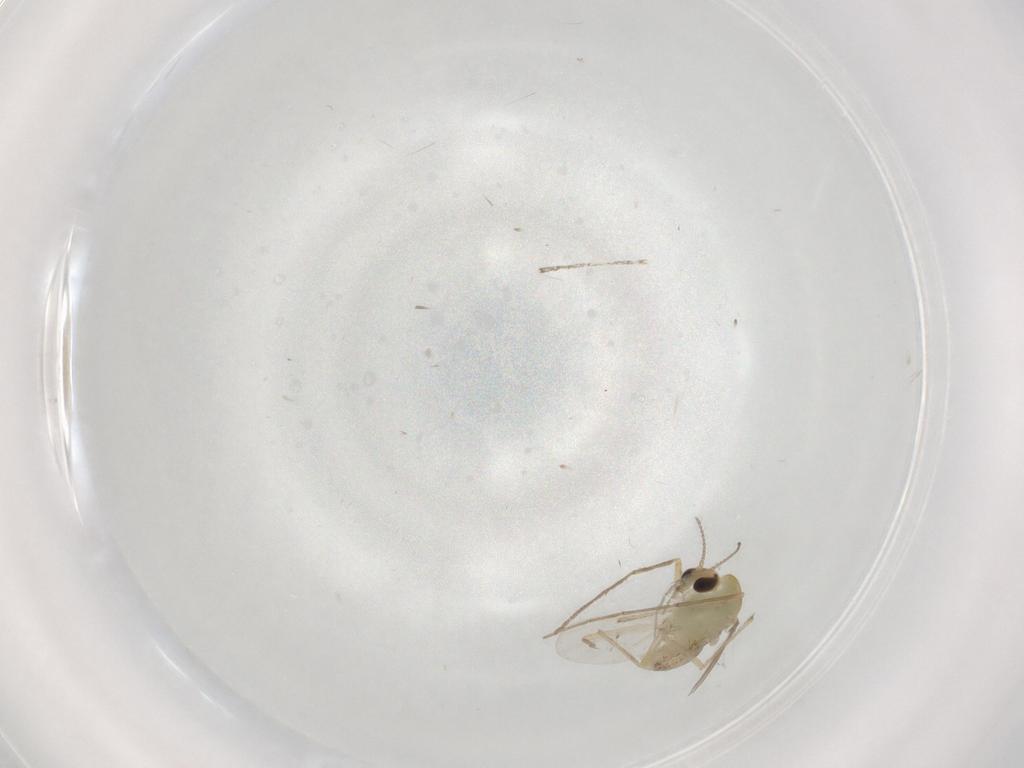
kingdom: Animalia
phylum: Arthropoda
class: Insecta
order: Diptera
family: Chironomidae
